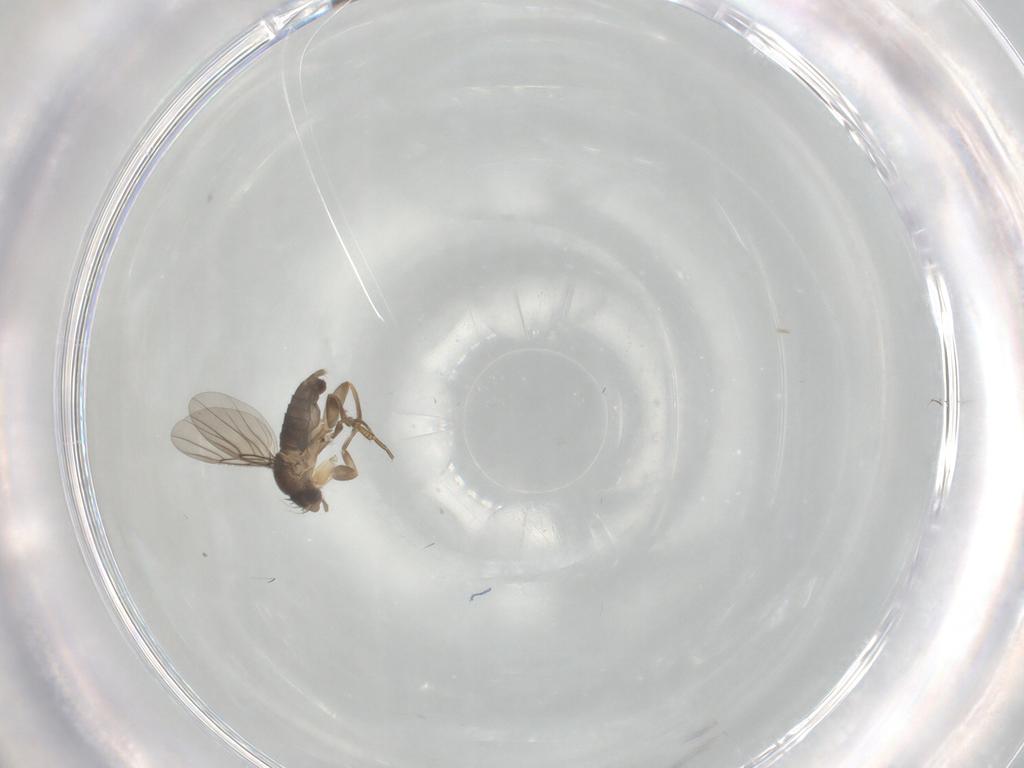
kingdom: Animalia
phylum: Arthropoda
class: Insecta
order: Diptera
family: Phoridae
